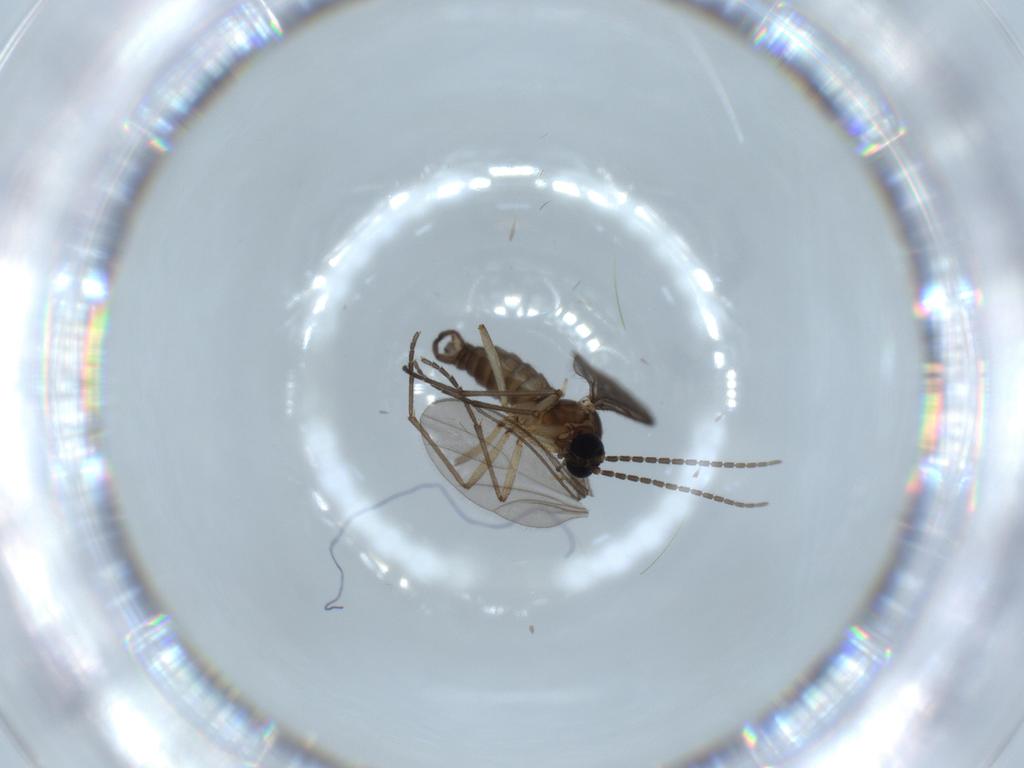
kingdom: Animalia
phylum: Arthropoda
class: Insecta
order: Diptera
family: Sciaridae
